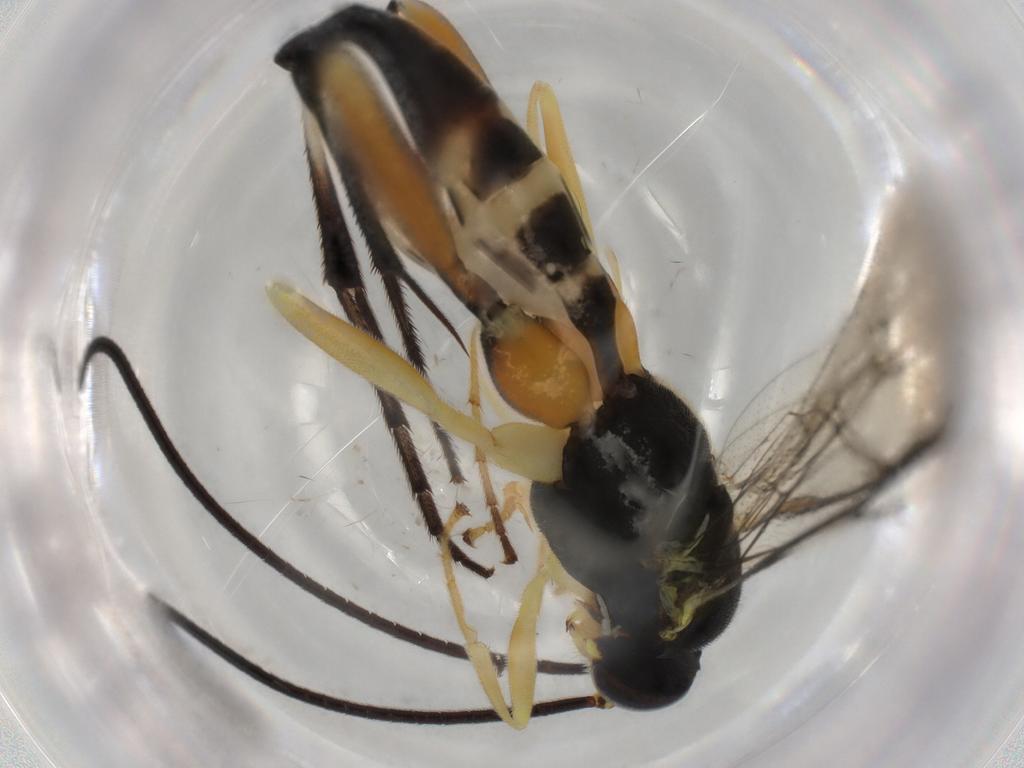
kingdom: Animalia
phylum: Arthropoda
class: Insecta
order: Hymenoptera
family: Ichneumonidae
